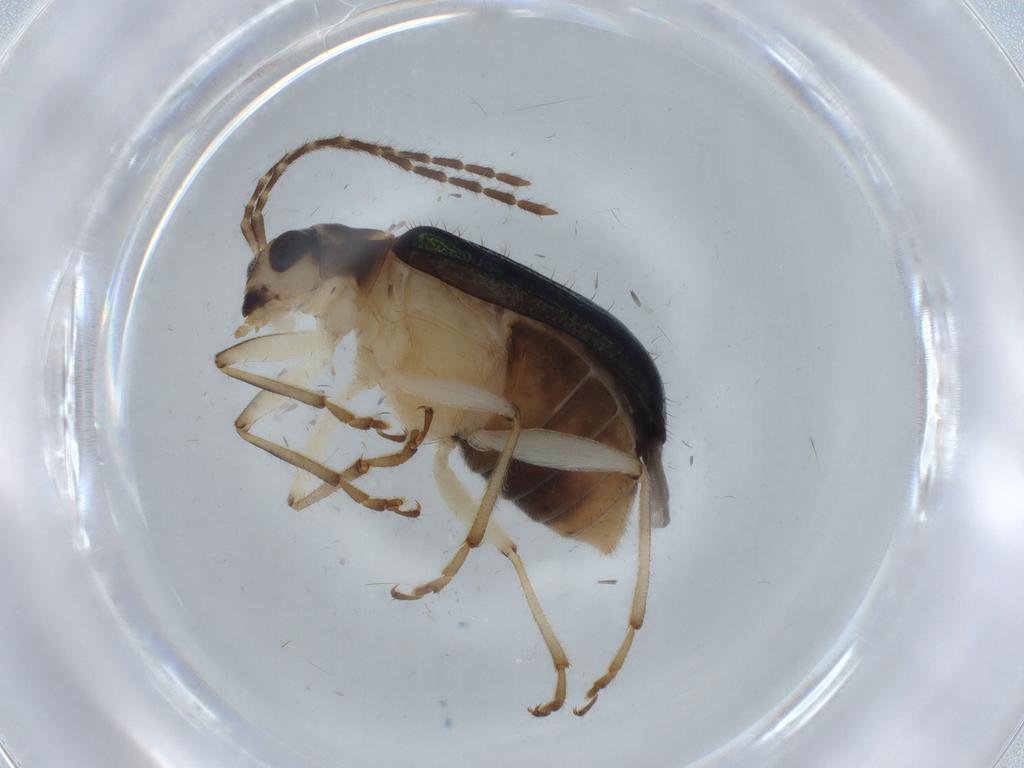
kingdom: Animalia
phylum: Arthropoda
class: Insecta
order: Coleoptera
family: Chrysomelidae
